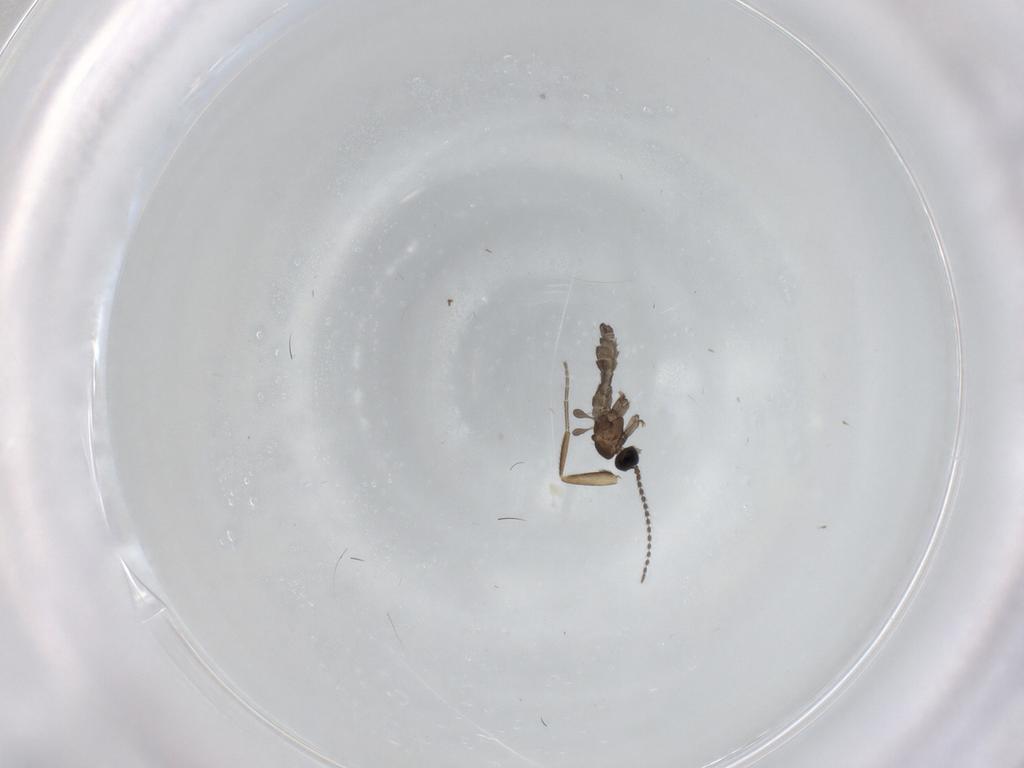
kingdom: Animalia
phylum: Arthropoda
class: Insecta
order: Diptera
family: Phoridae
